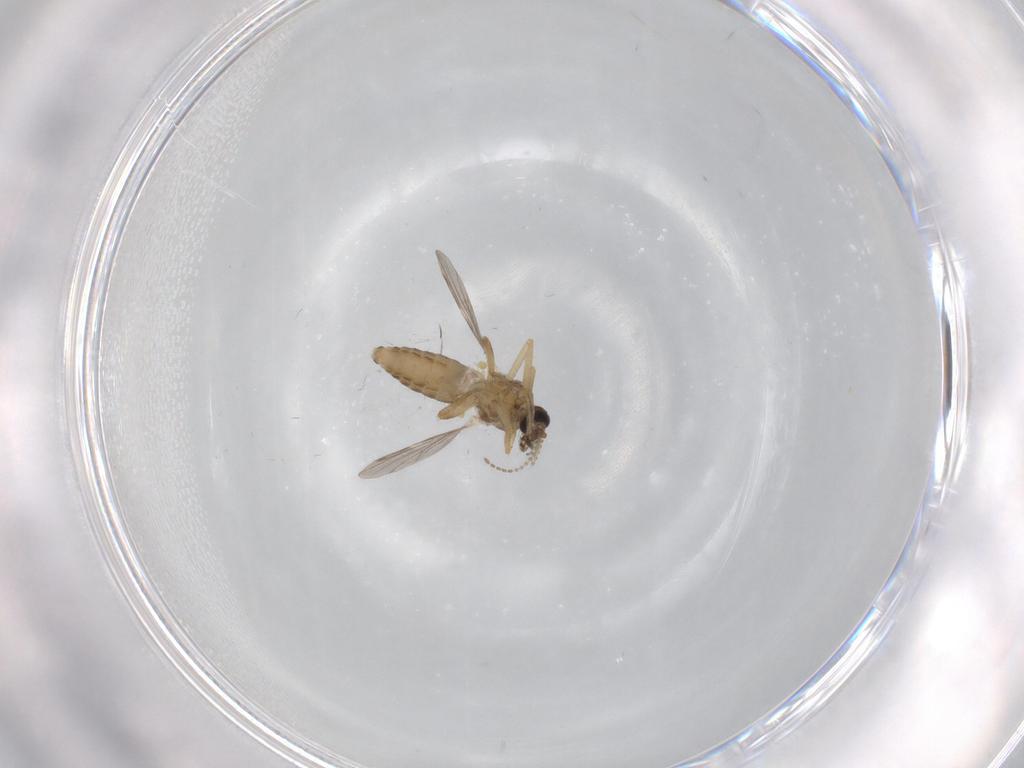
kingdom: Animalia
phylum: Arthropoda
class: Insecta
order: Diptera
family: Ceratopogonidae
